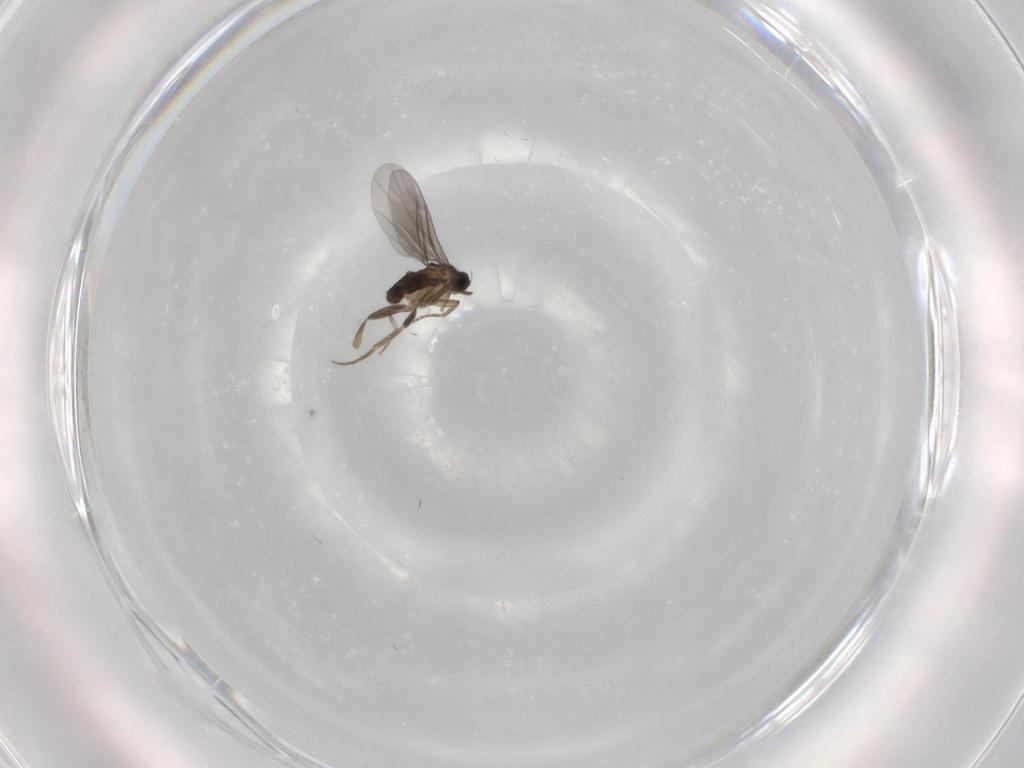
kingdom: Animalia
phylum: Arthropoda
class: Insecta
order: Diptera
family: Phoridae
